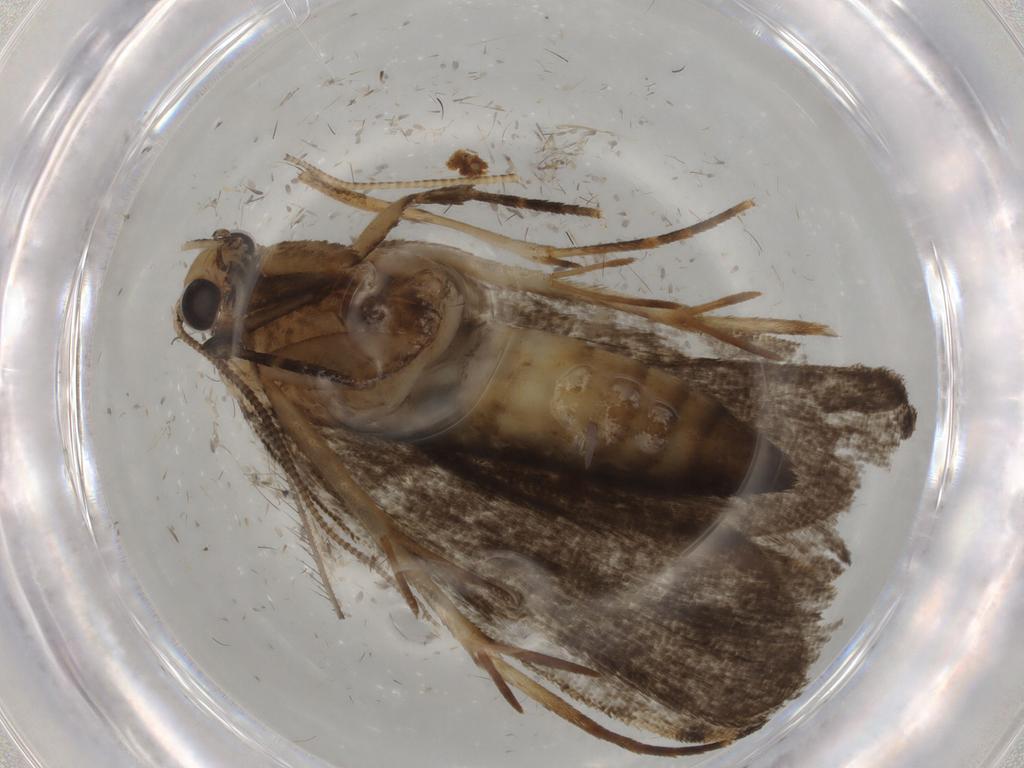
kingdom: Animalia
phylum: Arthropoda
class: Insecta
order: Lepidoptera
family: Tineidae
